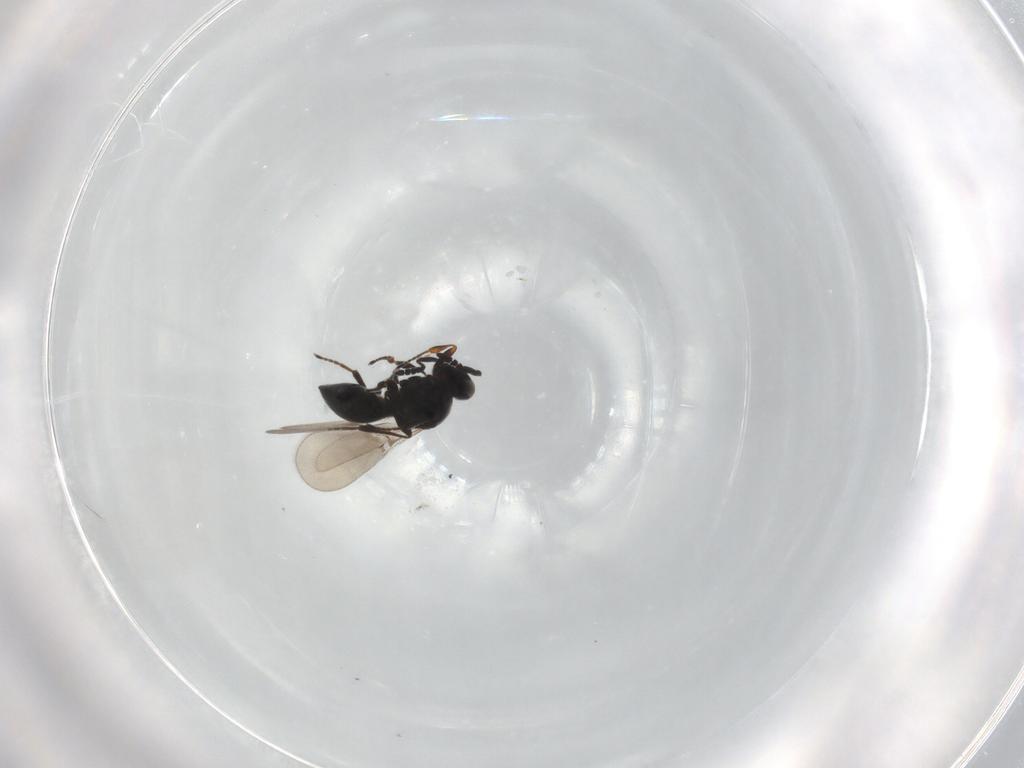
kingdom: Animalia
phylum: Arthropoda
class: Insecta
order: Hymenoptera
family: Platygastridae
